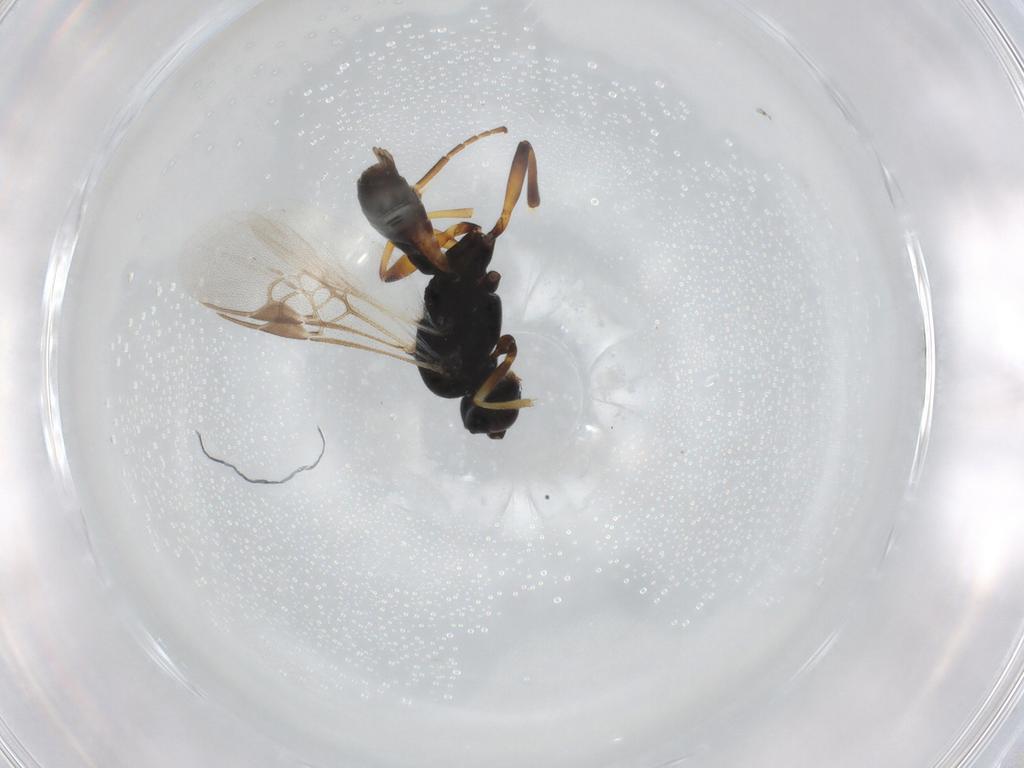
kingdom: Animalia
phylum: Arthropoda
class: Insecta
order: Hymenoptera
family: Braconidae
